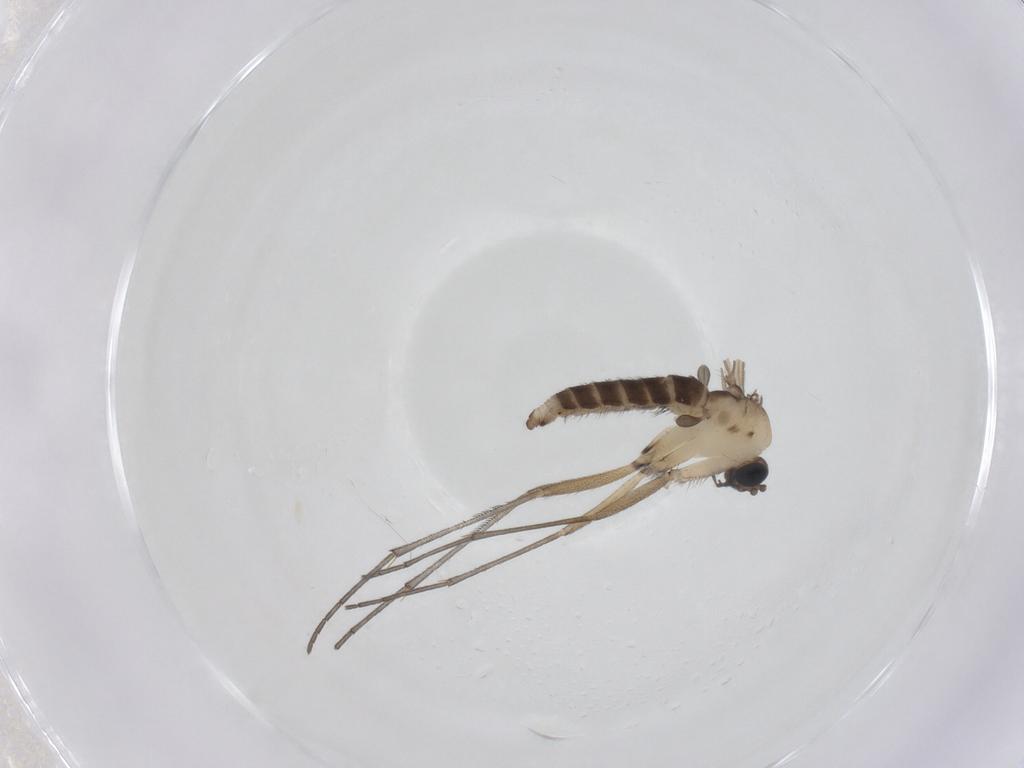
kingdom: Animalia
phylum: Arthropoda
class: Insecta
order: Diptera
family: Sciaridae
